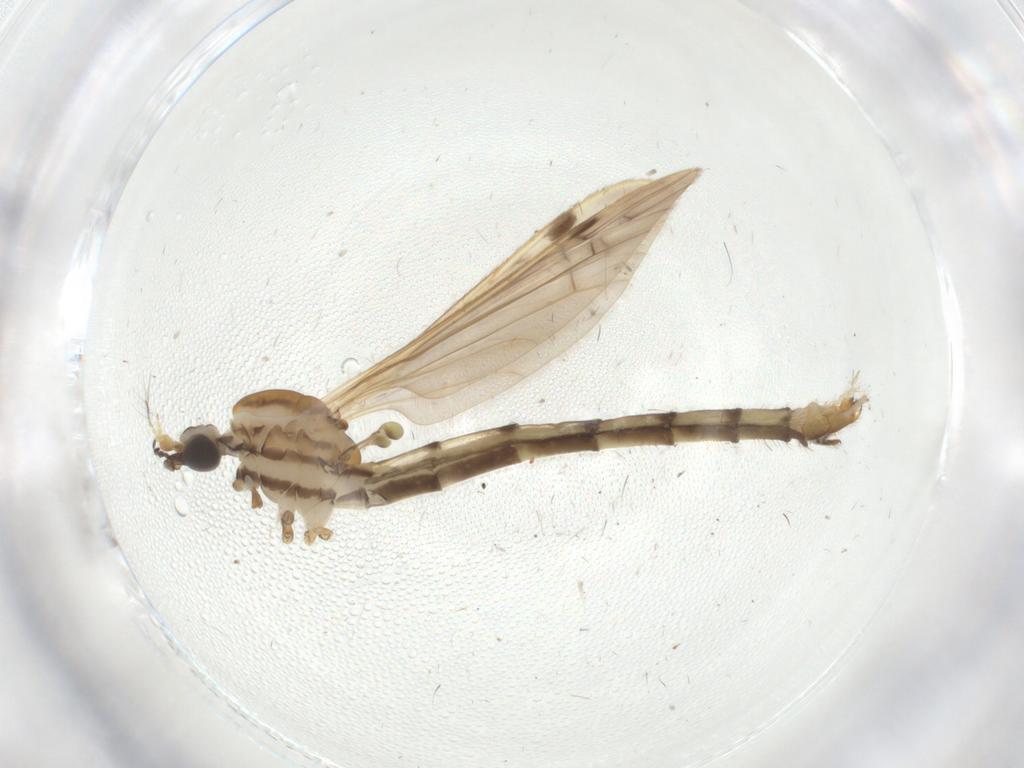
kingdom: Animalia
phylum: Arthropoda
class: Insecta
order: Diptera
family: Phoridae
